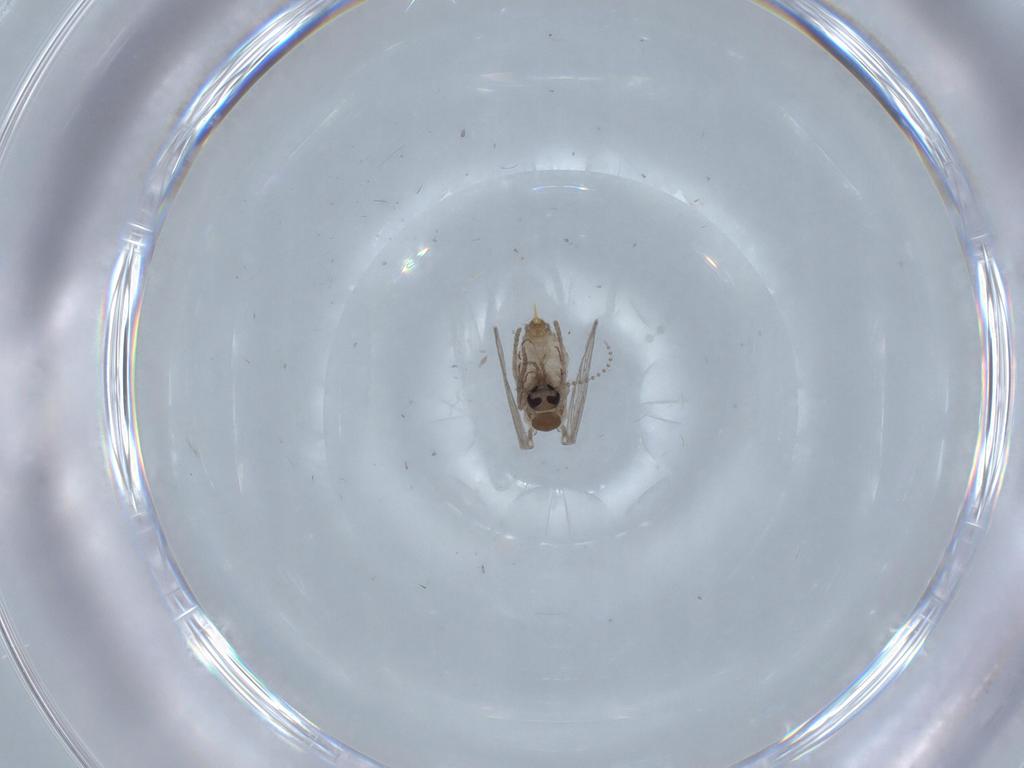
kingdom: Animalia
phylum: Arthropoda
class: Insecta
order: Diptera
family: Psychodidae
